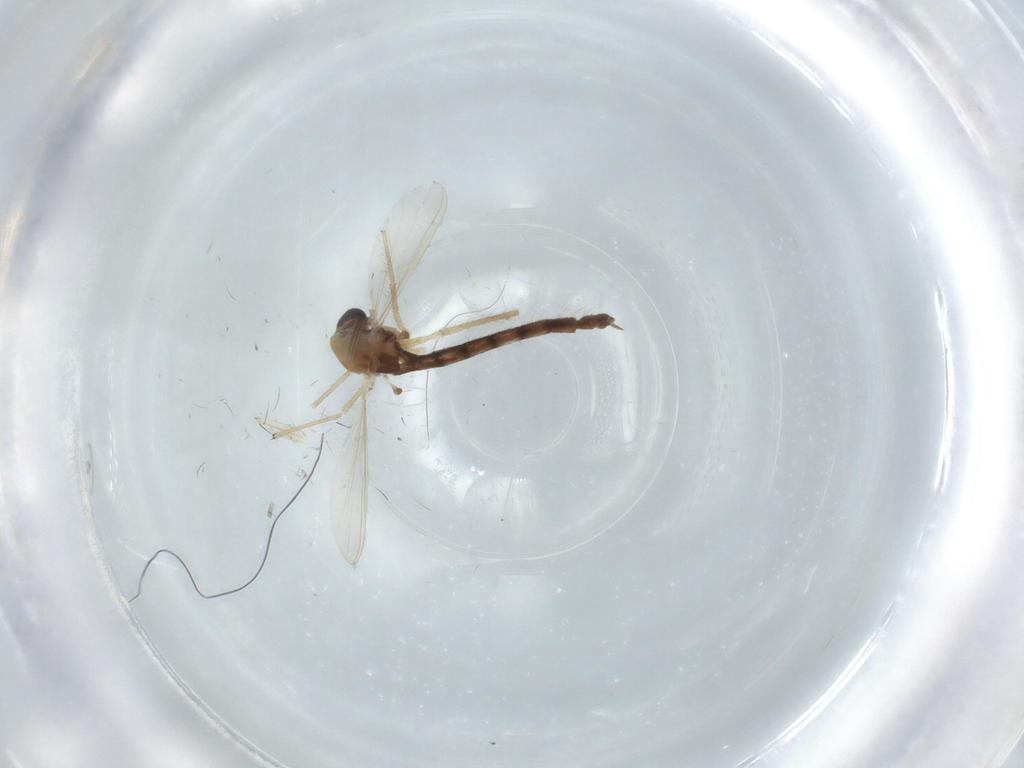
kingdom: Animalia
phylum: Arthropoda
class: Insecta
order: Diptera
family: Chironomidae
